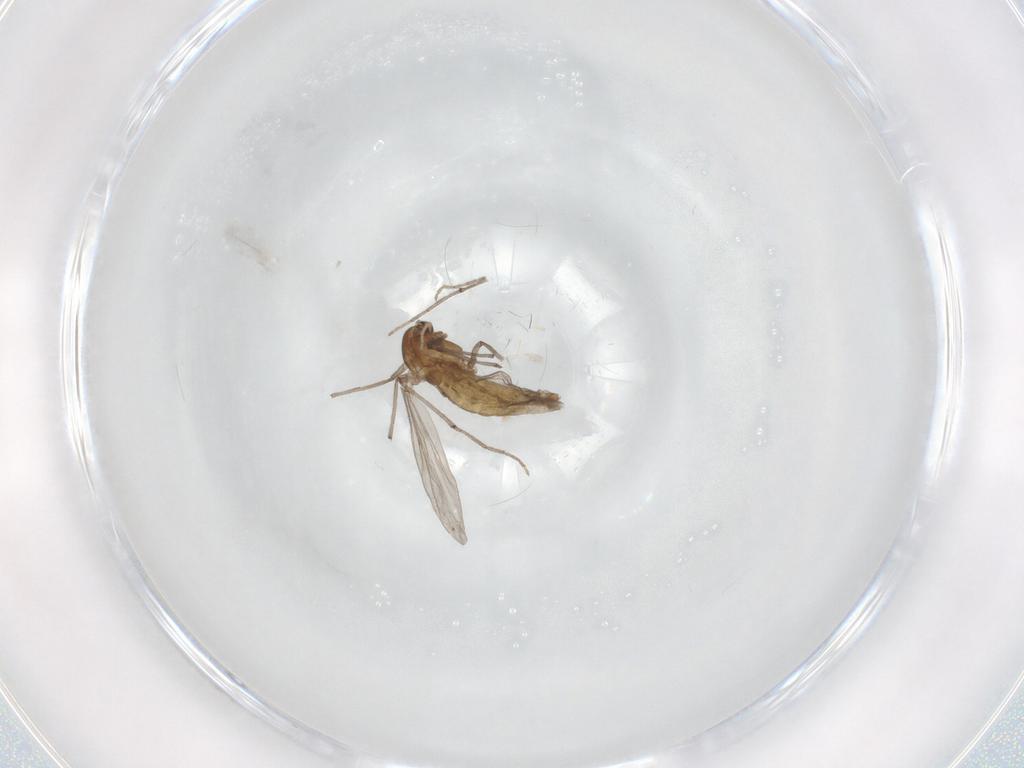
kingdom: Animalia
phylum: Arthropoda
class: Insecta
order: Diptera
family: Chironomidae
